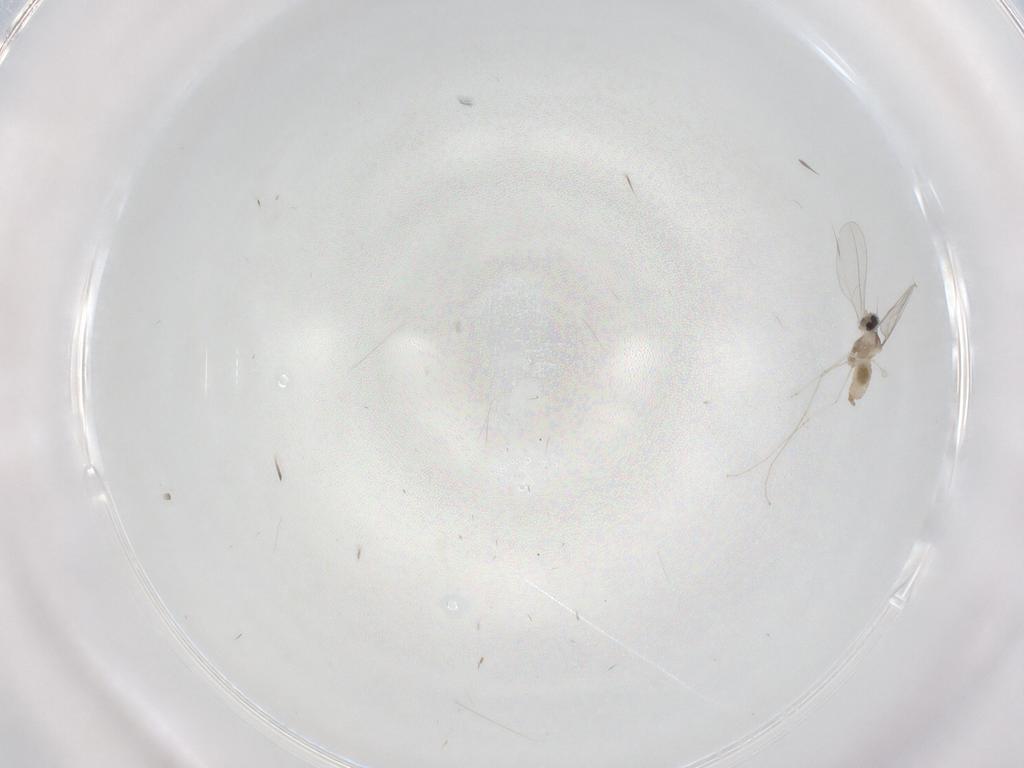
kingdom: Animalia
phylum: Arthropoda
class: Insecta
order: Diptera
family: Cecidomyiidae
